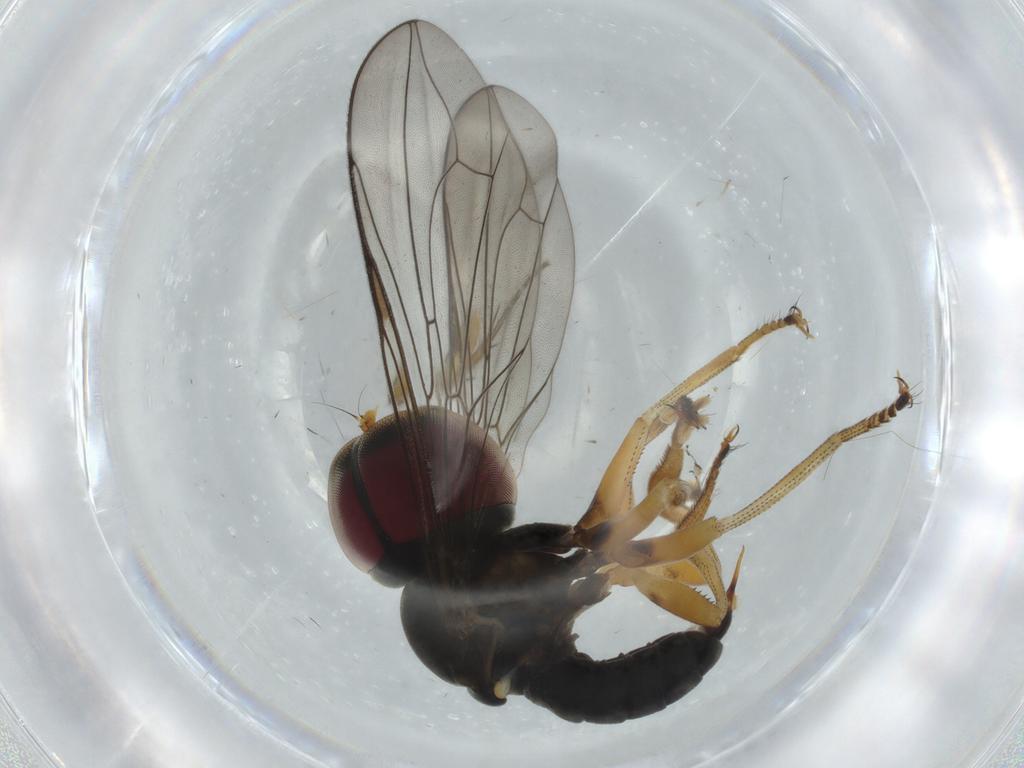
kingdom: Animalia
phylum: Arthropoda
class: Insecta
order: Diptera
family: Phoridae
